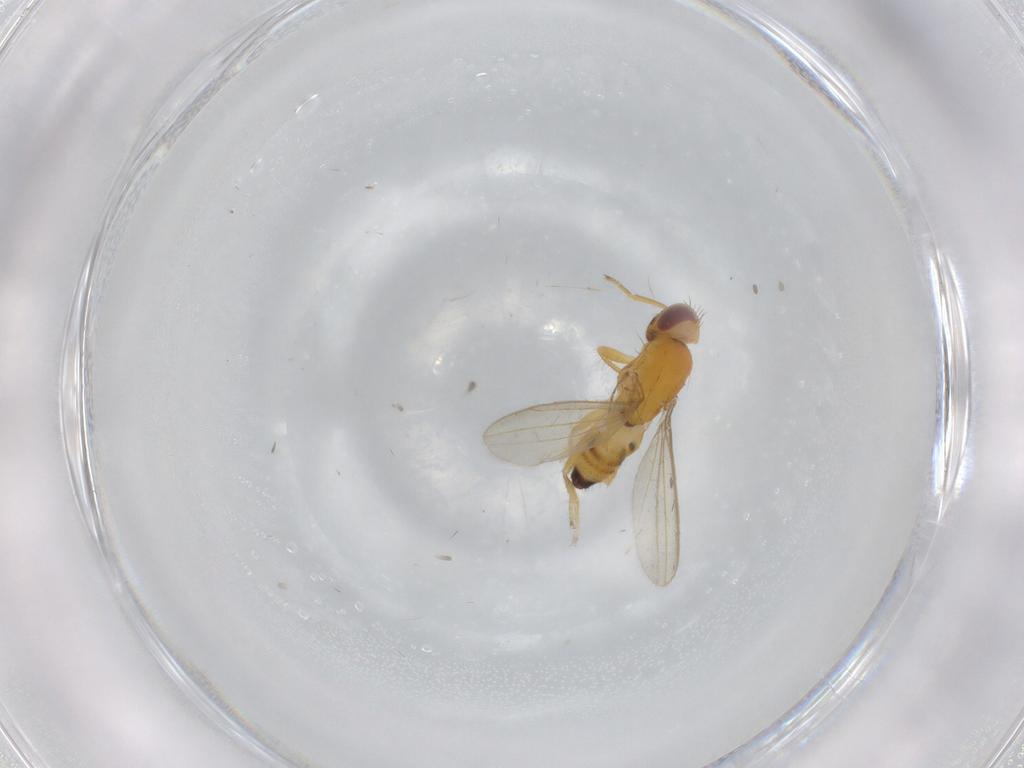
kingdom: Animalia
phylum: Arthropoda
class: Insecta
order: Diptera
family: Periscelididae
